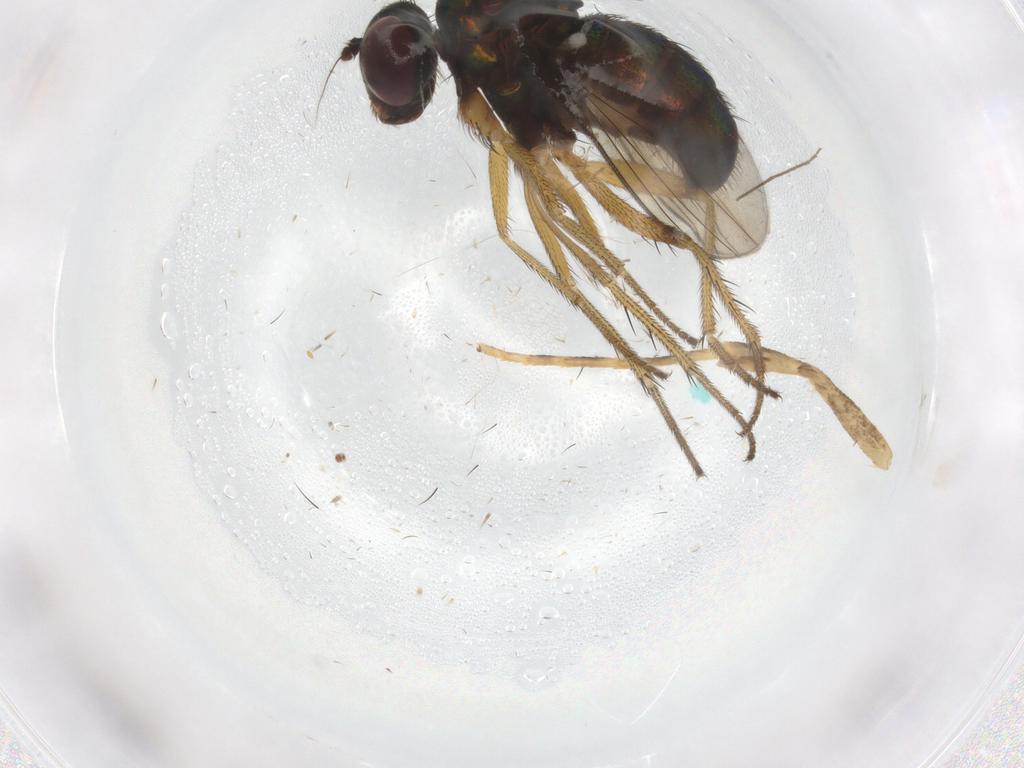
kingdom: Animalia
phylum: Arthropoda
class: Insecta
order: Diptera
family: Dolichopodidae
